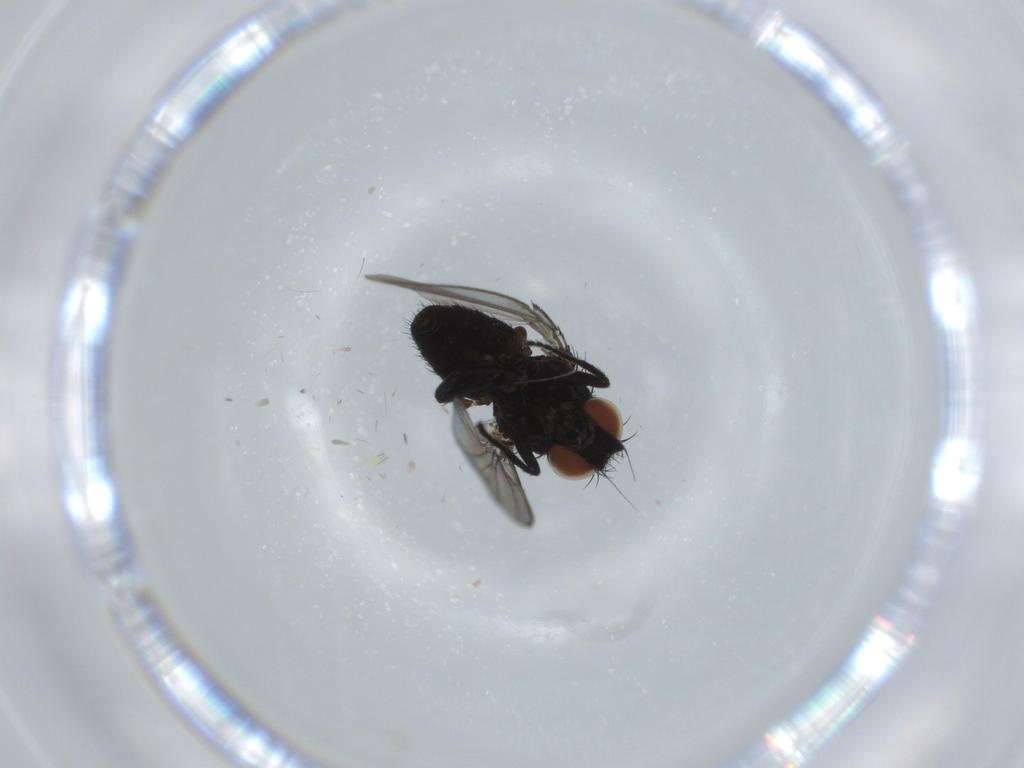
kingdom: Animalia
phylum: Arthropoda
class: Insecta
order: Diptera
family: Milichiidae
